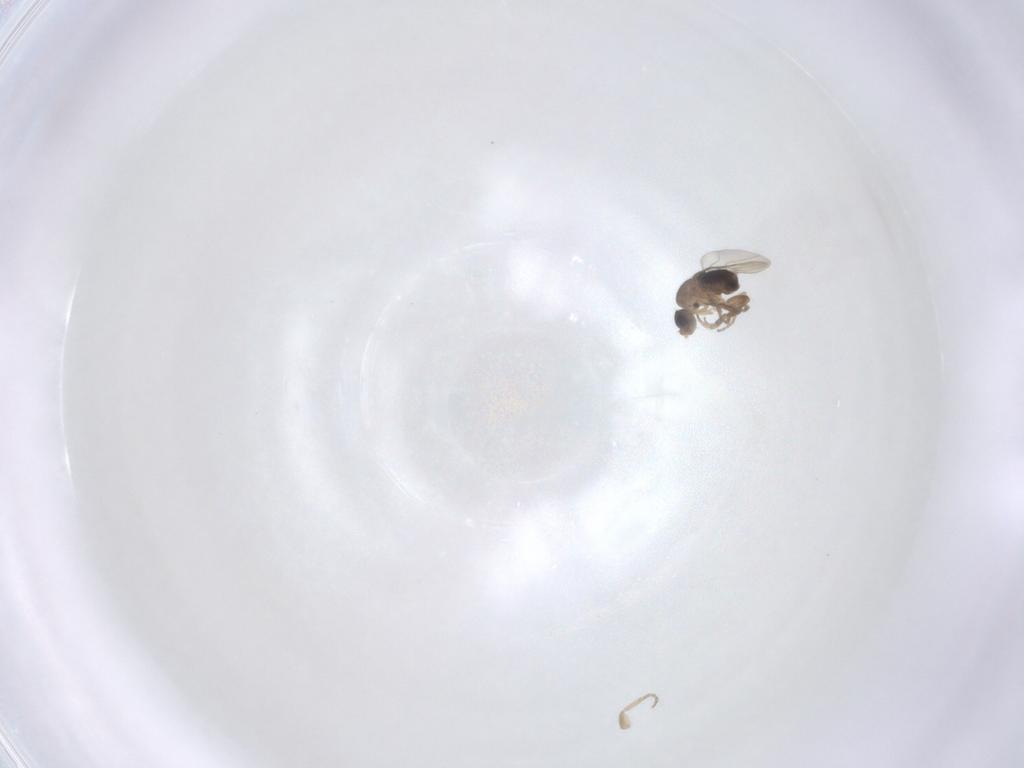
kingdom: Animalia
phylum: Arthropoda
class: Insecta
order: Diptera
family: Phoridae
